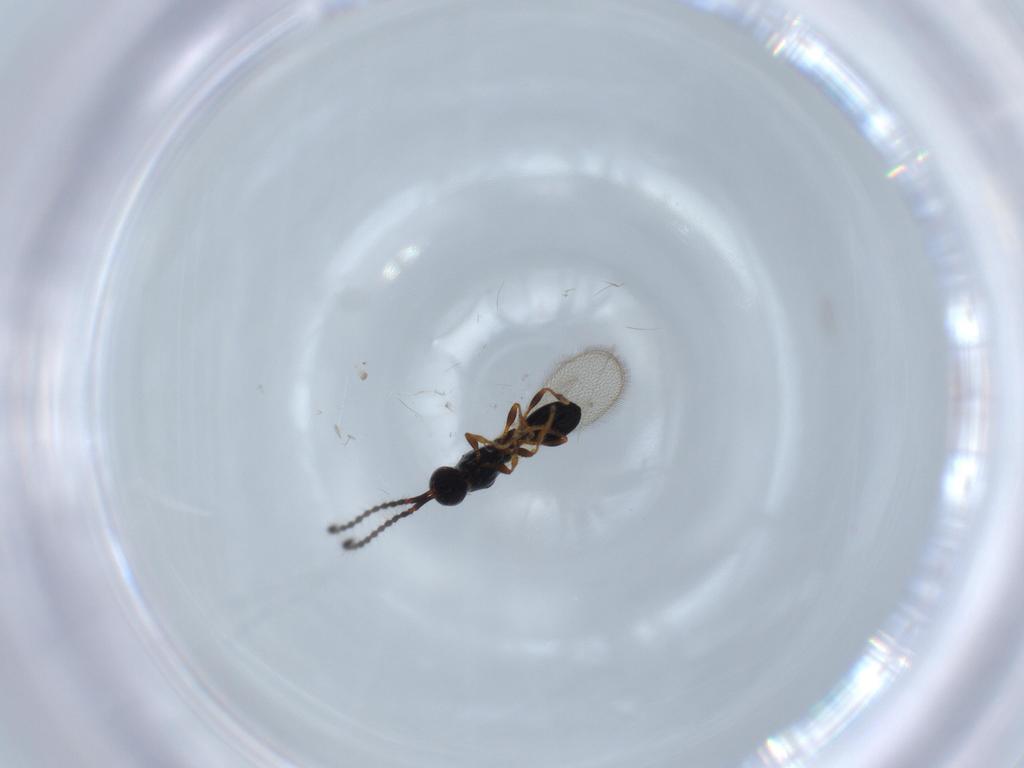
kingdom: Animalia
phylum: Arthropoda
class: Insecta
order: Hymenoptera
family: Diapriidae
